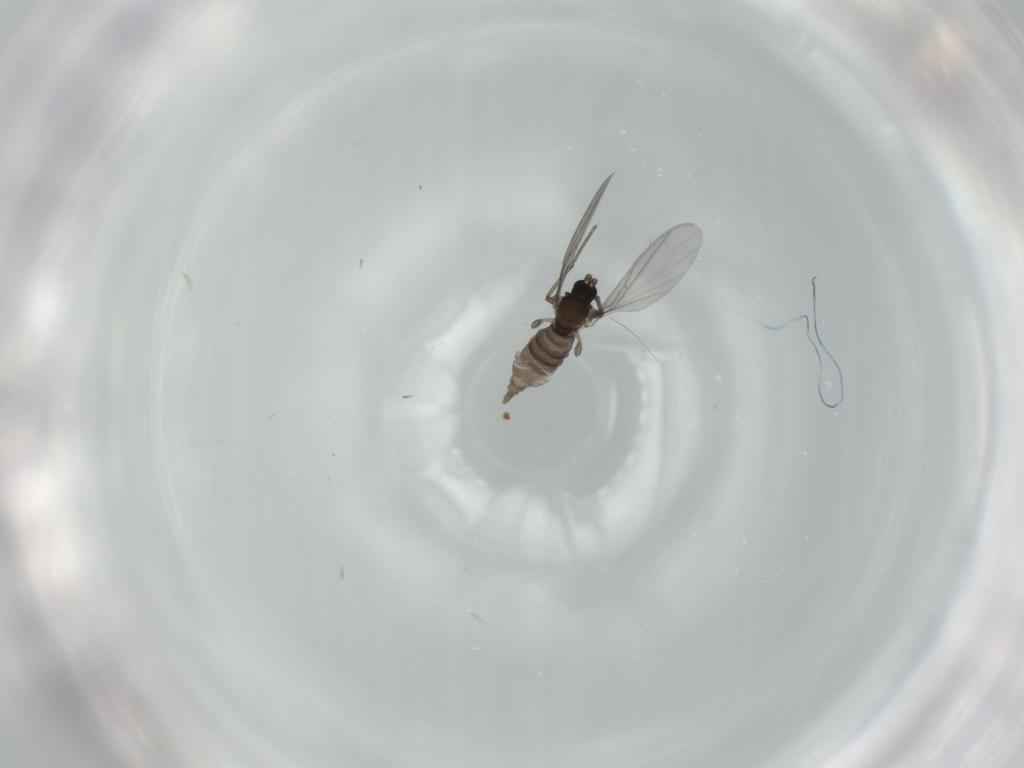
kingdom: Animalia
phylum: Arthropoda
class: Insecta
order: Diptera
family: Sciaridae
